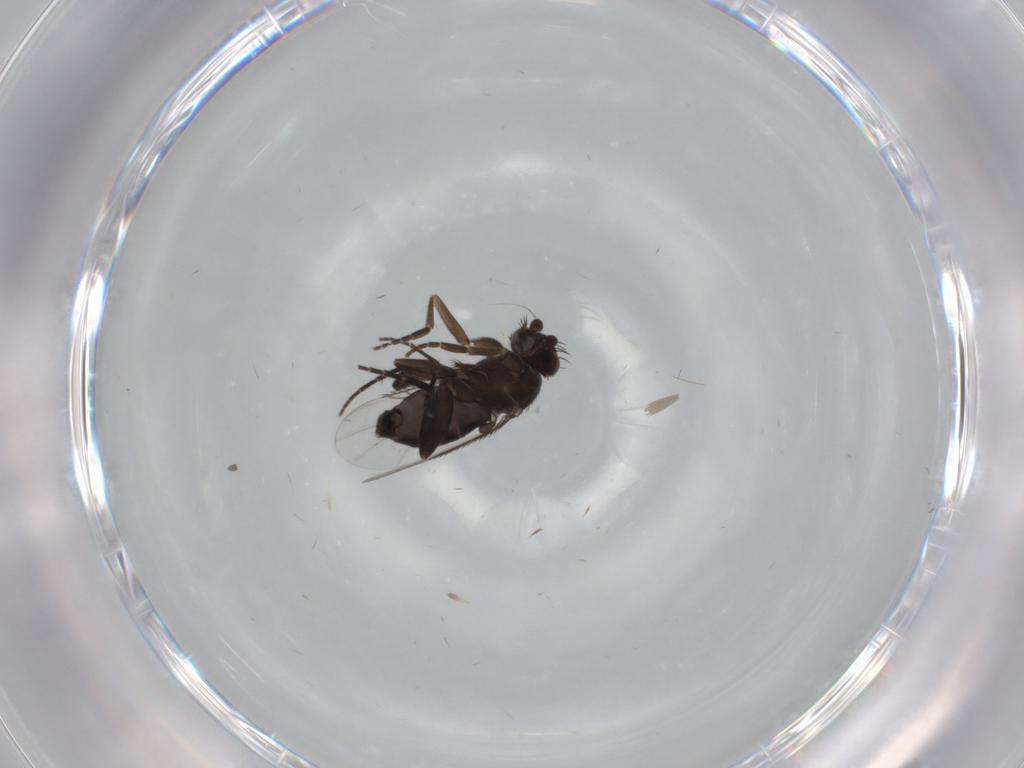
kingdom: Animalia
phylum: Arthropoda
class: Insecta
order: Diptera
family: Phoridae
